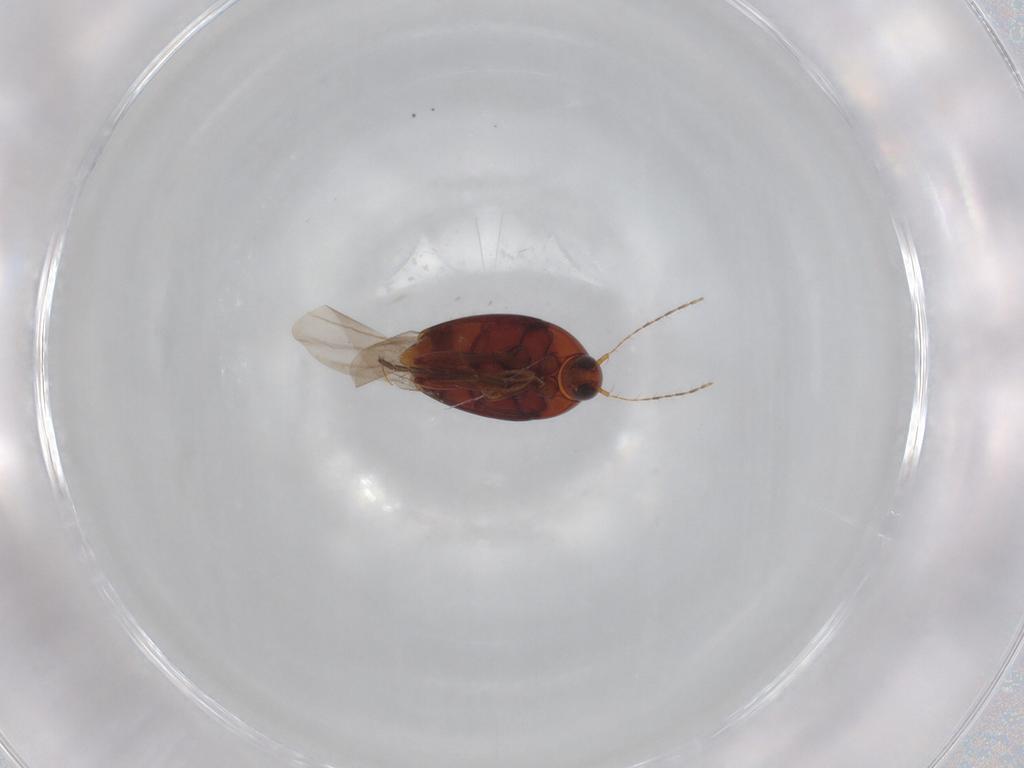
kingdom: Animalia
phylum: Arthropoda
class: Insecta
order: Coleoptera
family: Staphylinidae
